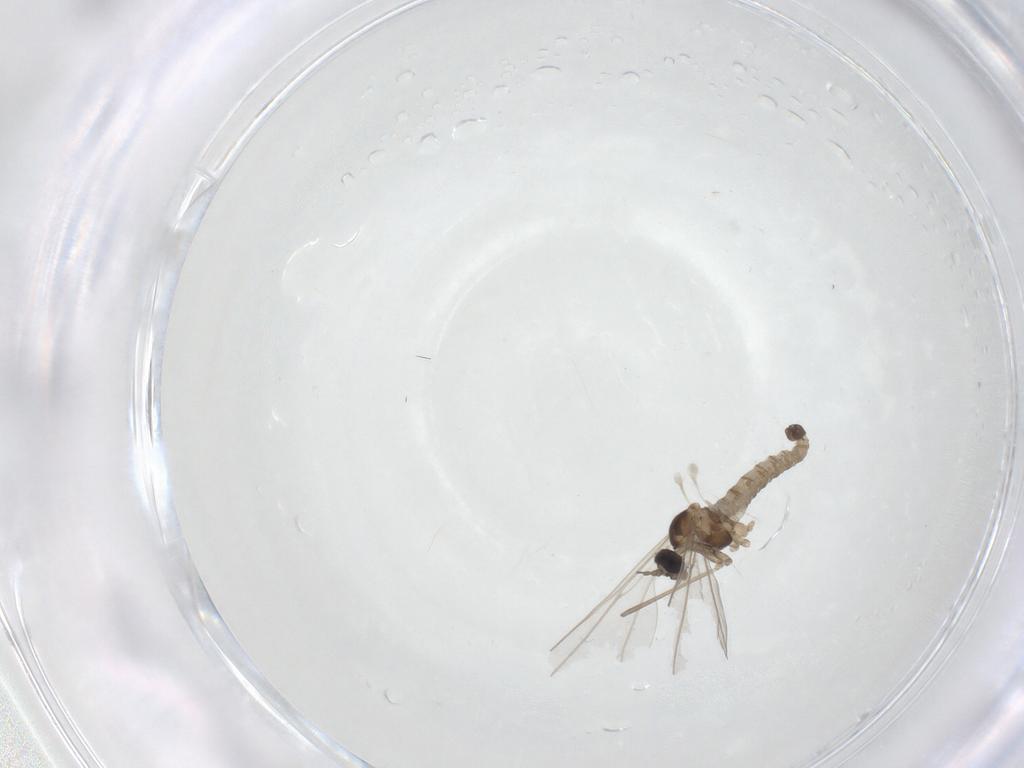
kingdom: Animalia
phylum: Arthropoda
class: Insecta
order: Diptera
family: Cecidomyiidae
